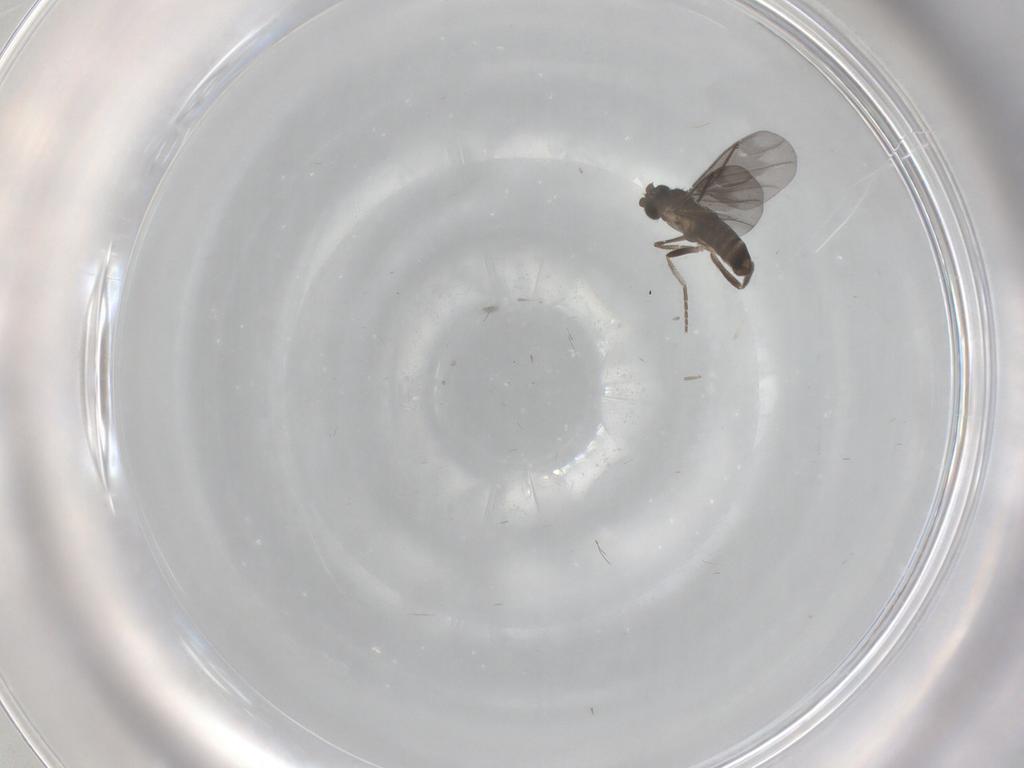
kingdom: Animalia
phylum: Arthropoda
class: Insecta
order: Diptera
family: Phoridae
